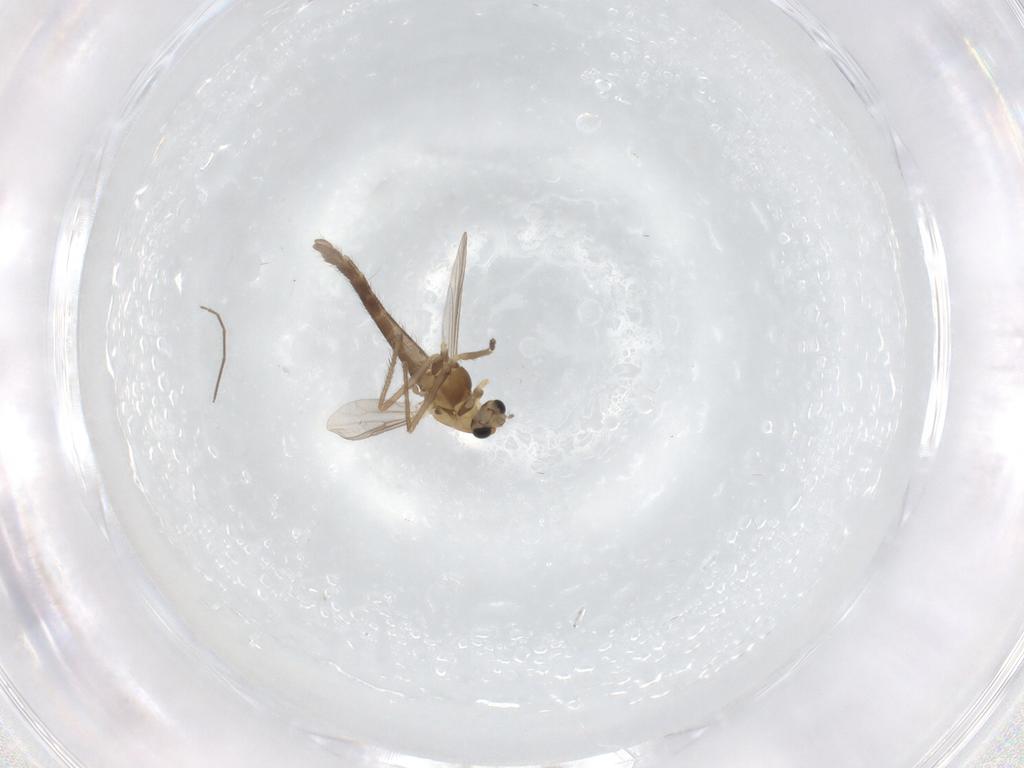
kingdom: Animalia
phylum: Arthropoda
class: Insecta
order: Diptera
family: Chironomidae
